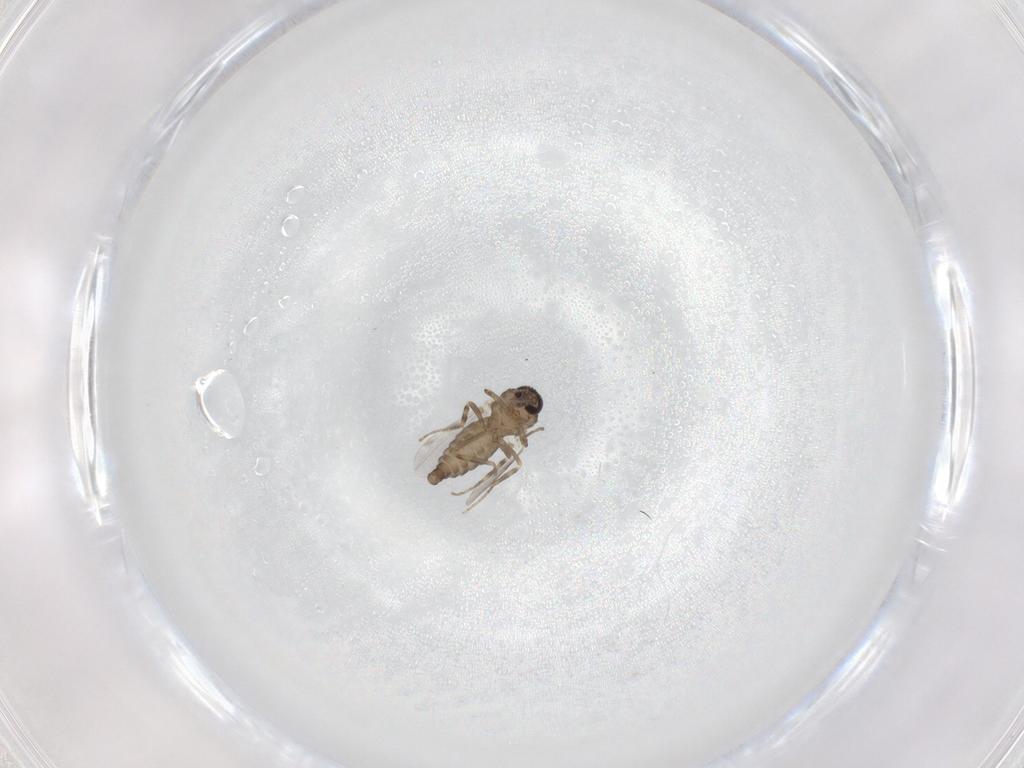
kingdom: Animalia
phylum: Arthropoda
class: Insecta
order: Diptera
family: Ceratopogonidae
